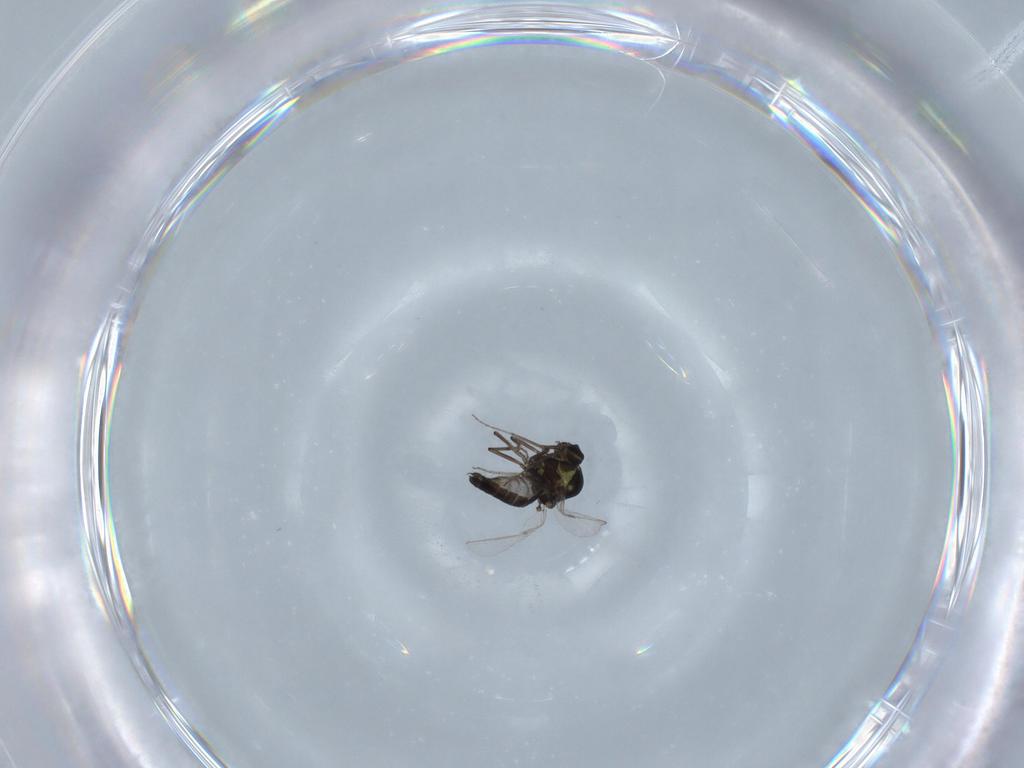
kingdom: Animalia
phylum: Arthropoda
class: Insecta
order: Diptera
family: Ceratopogonidae
